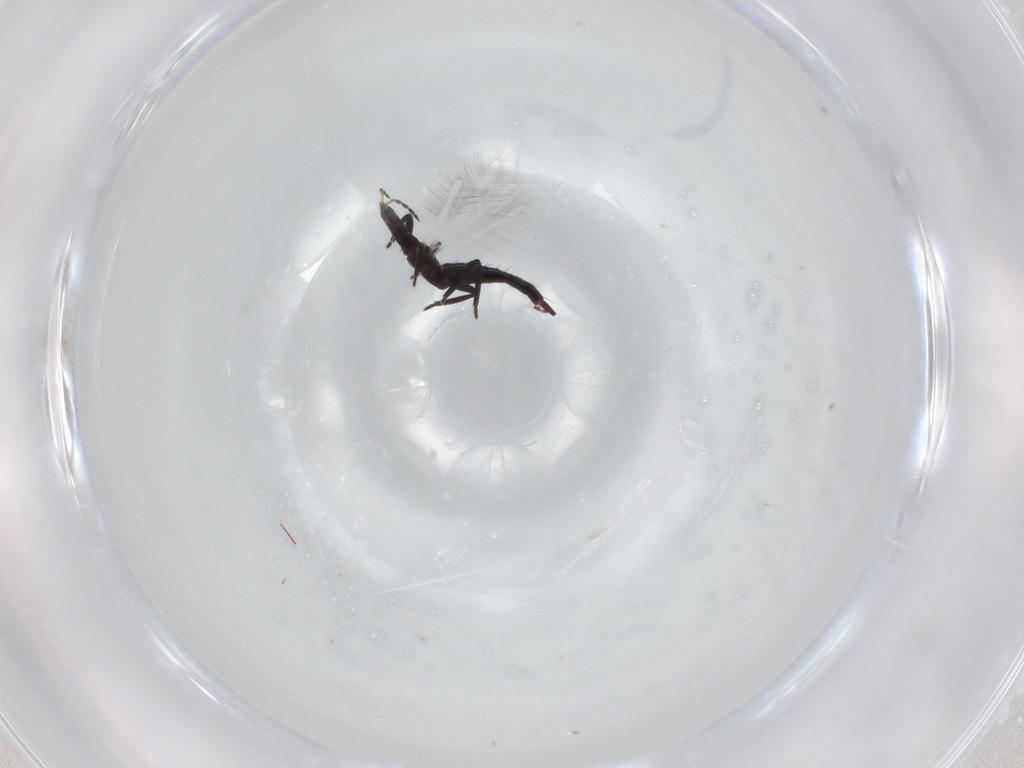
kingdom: Animalia
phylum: Arthropoda
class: Insecta
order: Thysanoptera
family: Phlaeothripidae
